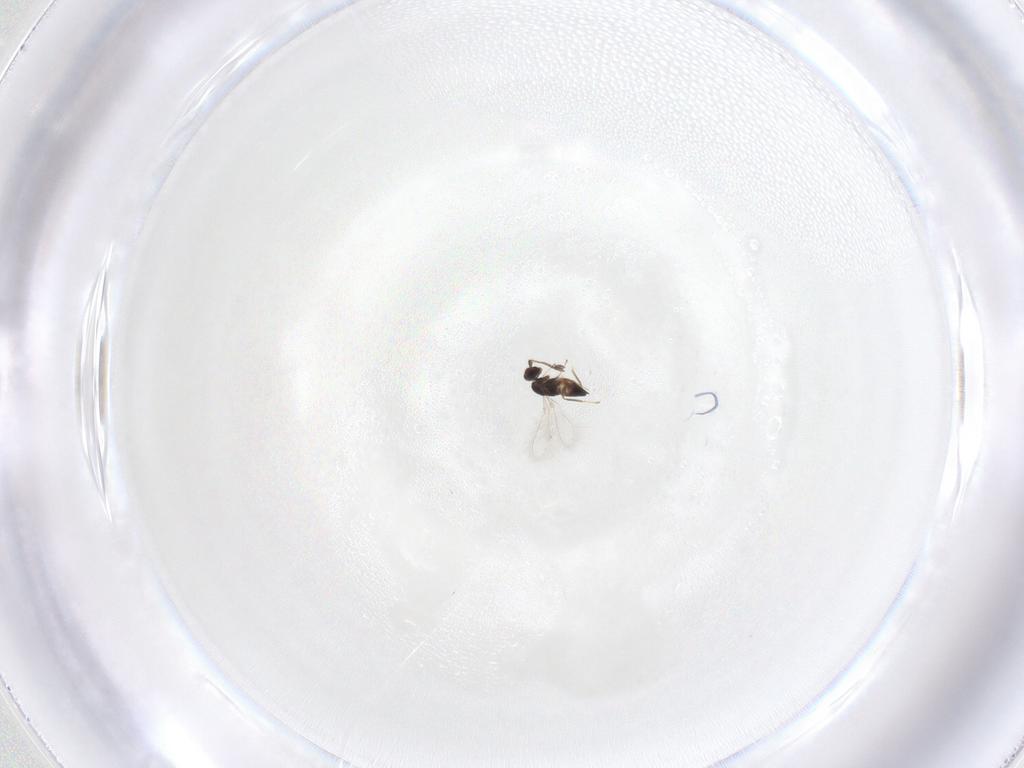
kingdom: Animalia
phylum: Arthropoda
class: Insecta
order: Hymenoptera
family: Mymaridae
